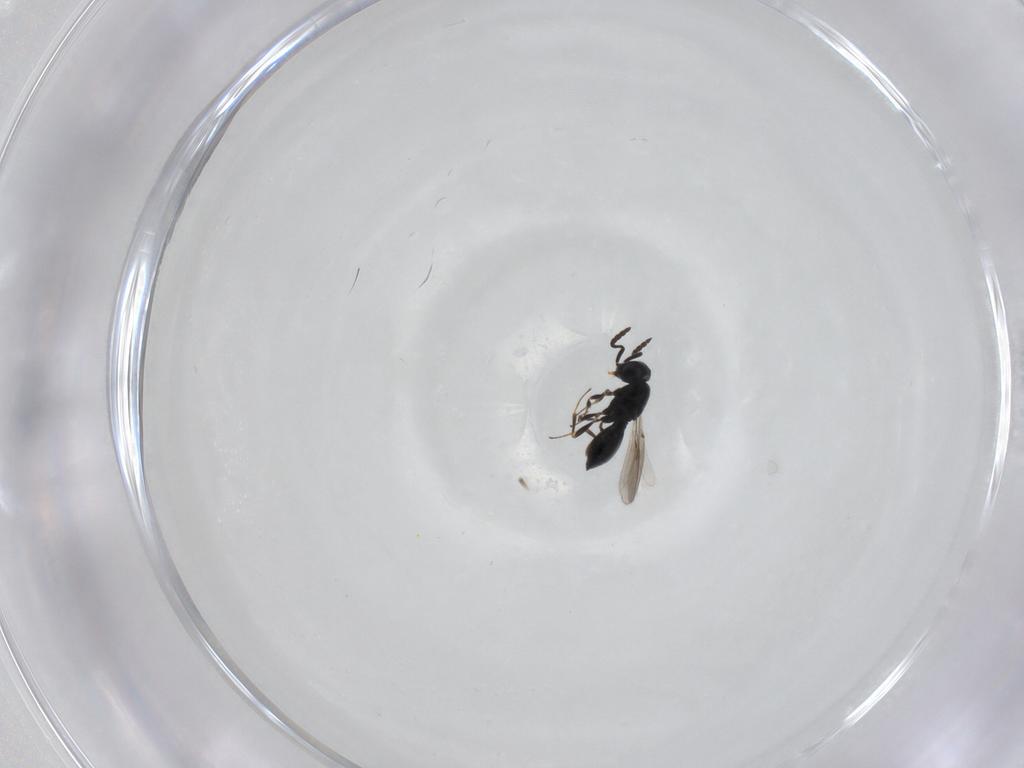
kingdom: Animalia
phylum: Arthropoda
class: Insecta
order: Hymenoptera
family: Scelionidae
